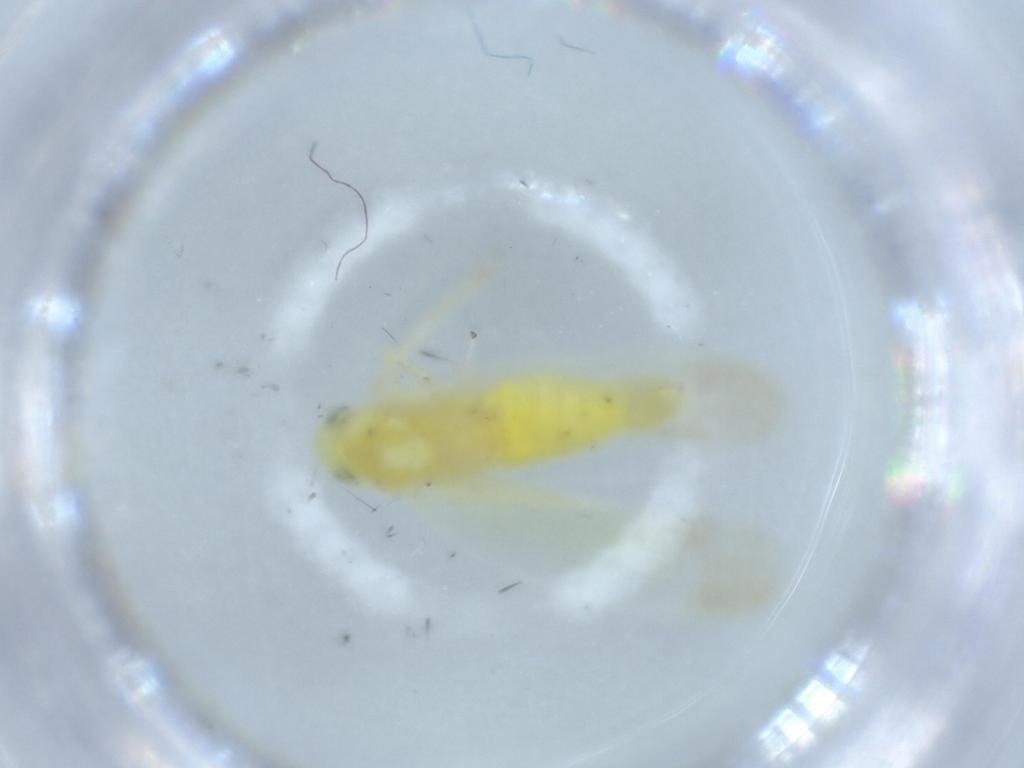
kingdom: Animalia
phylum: Arthropoda
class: Insecta
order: Hemiptera
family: Cicadellidae
